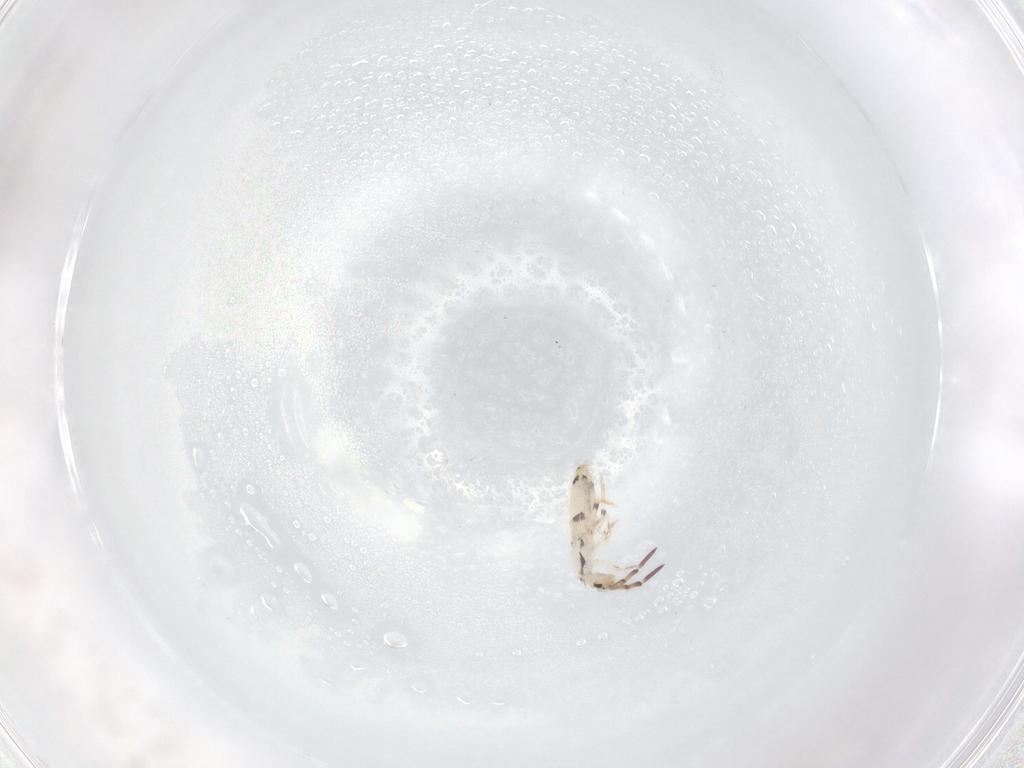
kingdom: Animalia
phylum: Arthropoda
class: Collembola
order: Entomobryomorpha
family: Entomobryidae
